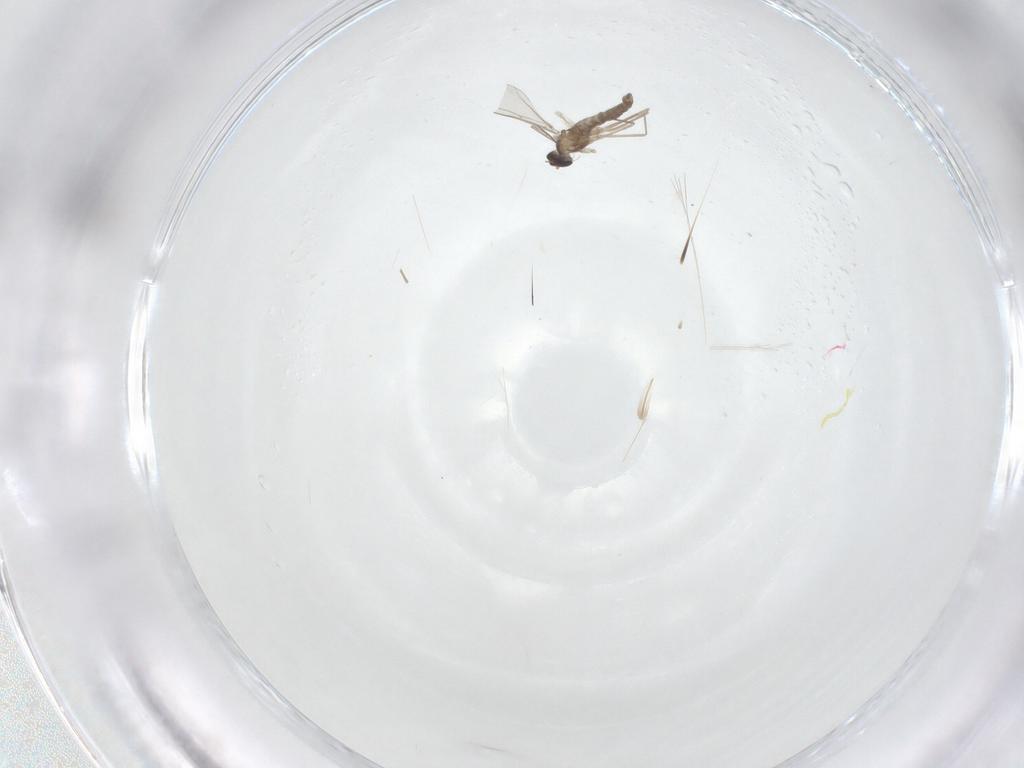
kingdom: Animalia
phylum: Arthropoda
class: Insecta
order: Diptera
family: Cecidomyiidae
